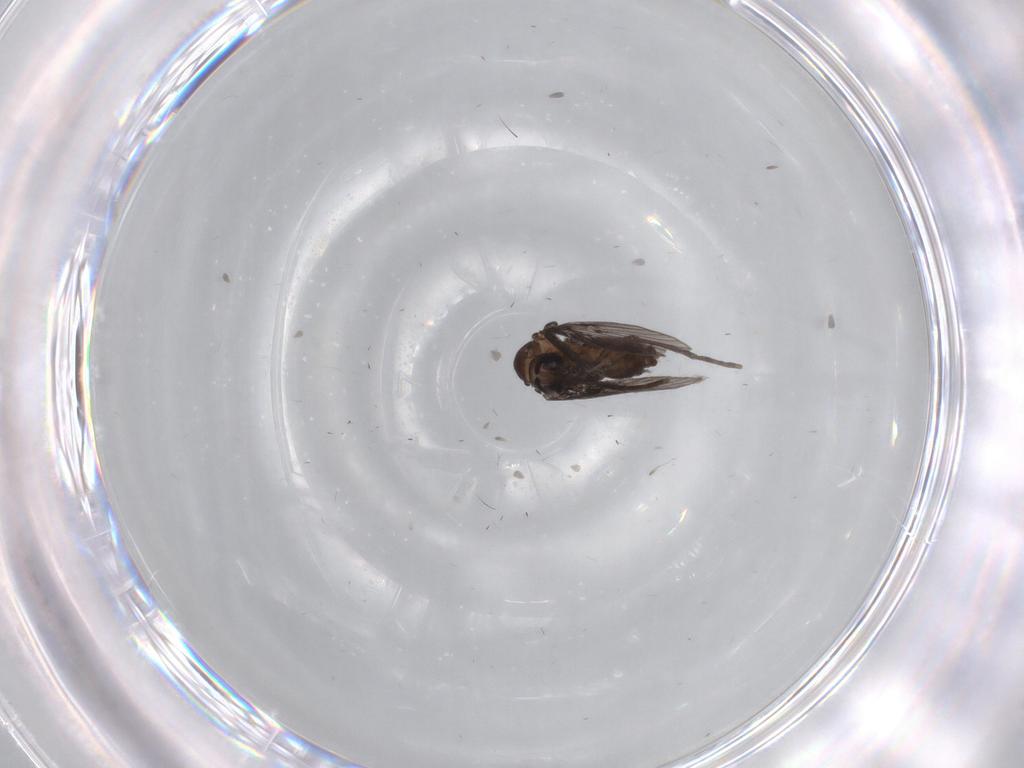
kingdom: Animalia
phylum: Arthropoda
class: Insecta
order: Diptera
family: Psychodidae
